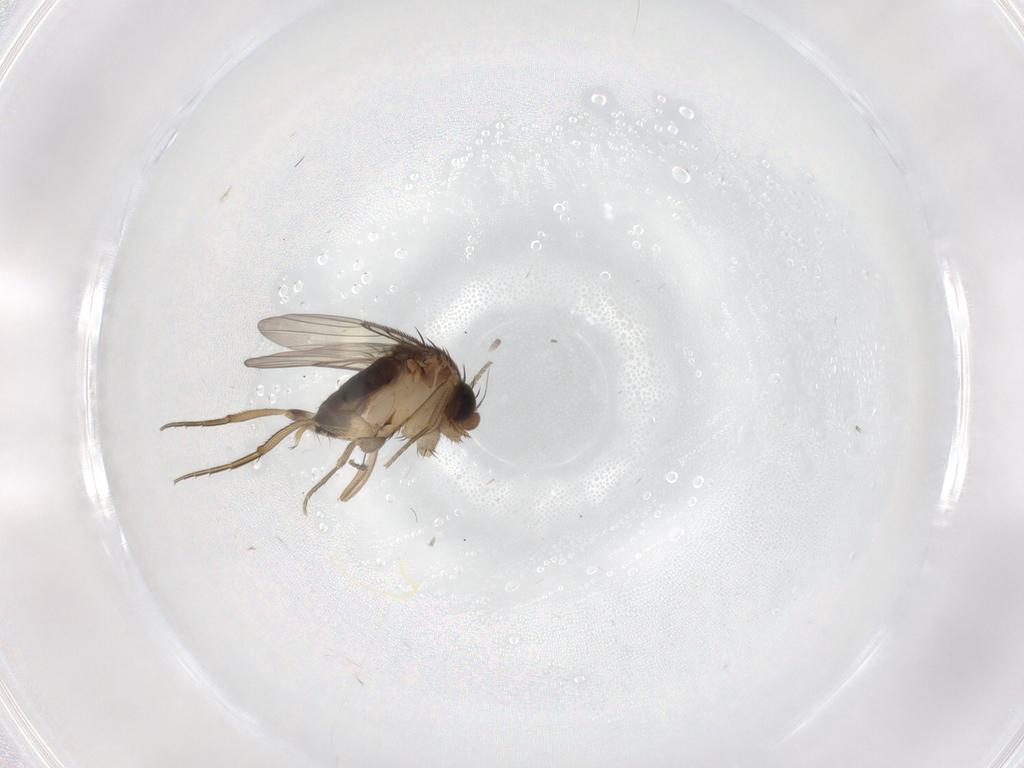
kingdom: Animalia
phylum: Arthropoda
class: Insecta
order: Diptera
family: Phoridae
